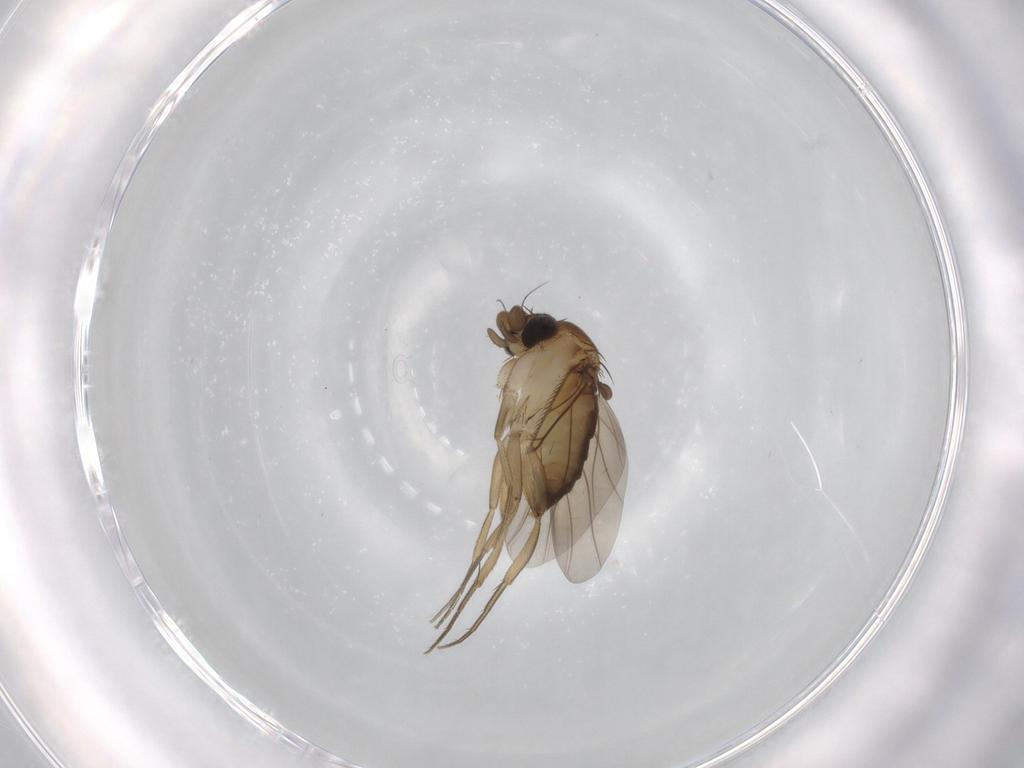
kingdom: Animalia
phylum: Arthropoda
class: Insecta
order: Diptera
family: Phoridae
